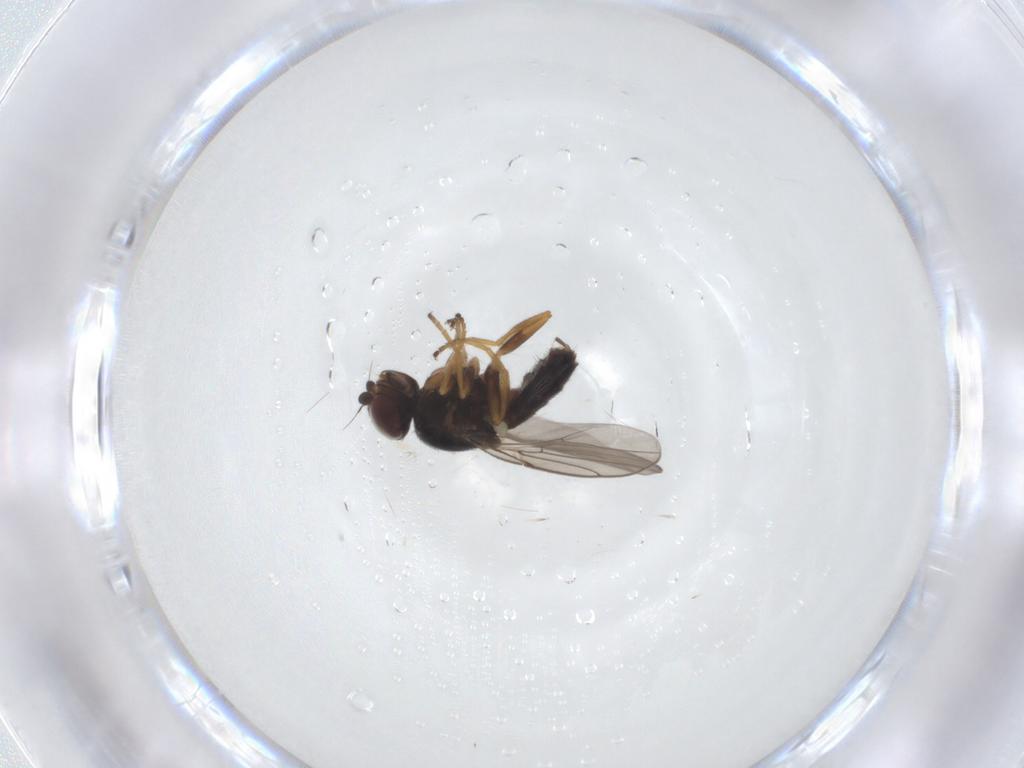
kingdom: Animalia
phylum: Arthropoda
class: Insecta
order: Diptera
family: Chloropidae
